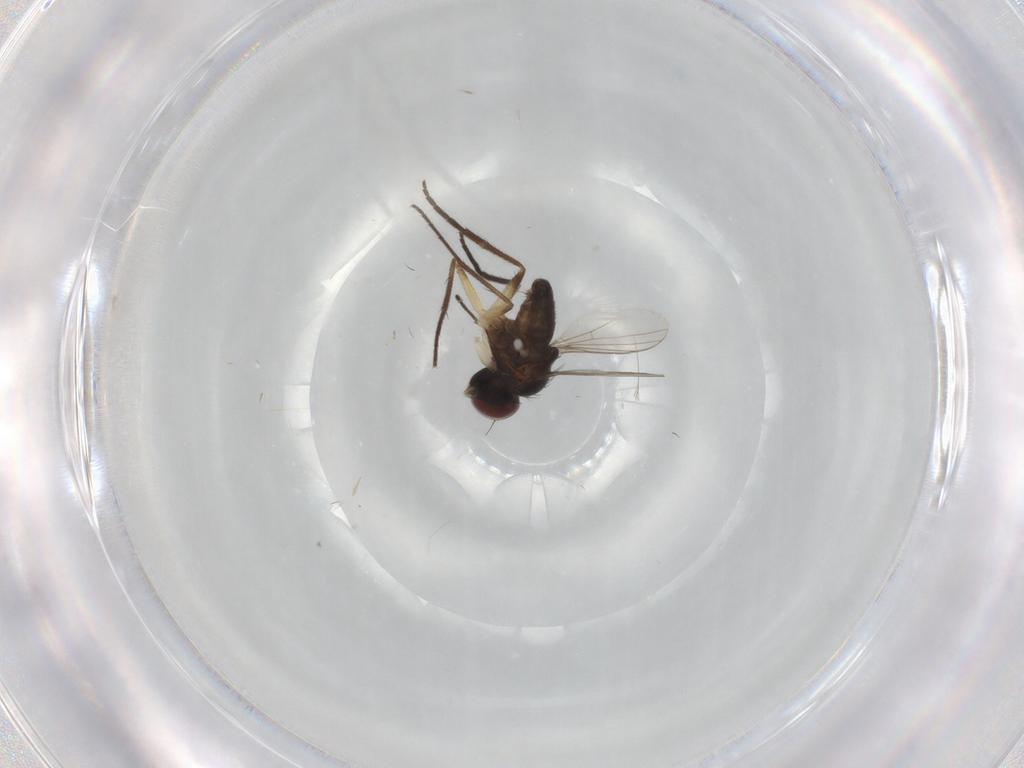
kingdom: Animalia
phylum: Arthropoda
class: Insecta
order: Diptera
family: Dolichopodidae
